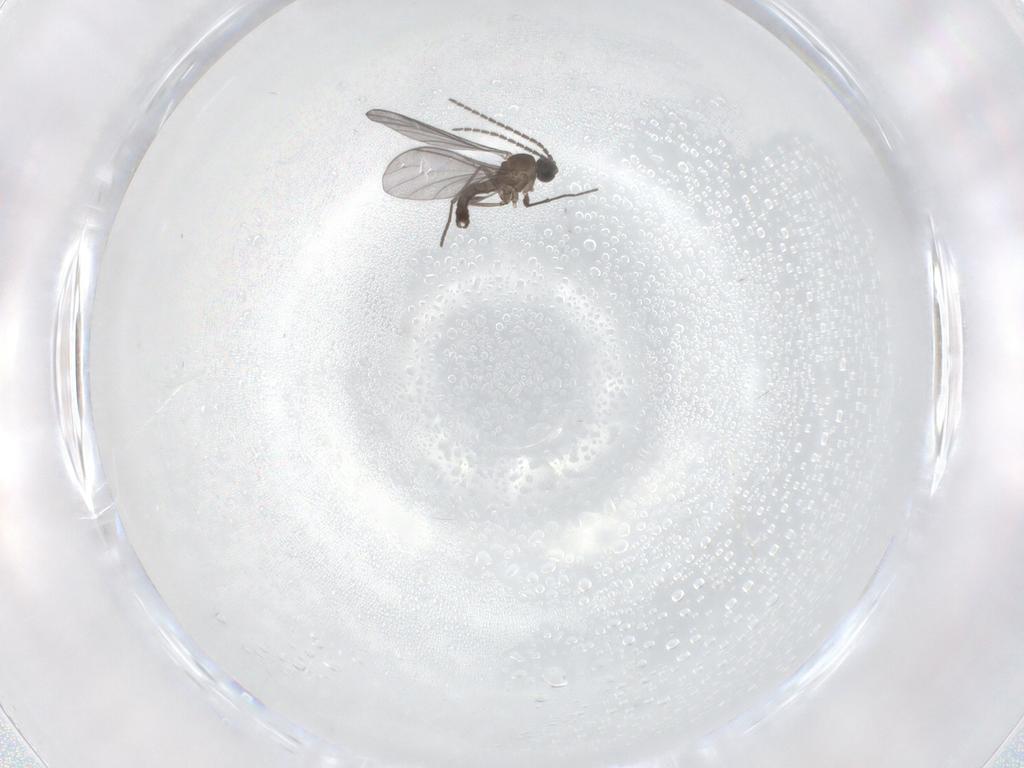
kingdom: Animalia
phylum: Arthropoda
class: Insecta
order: Diptera
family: Sciaridae
